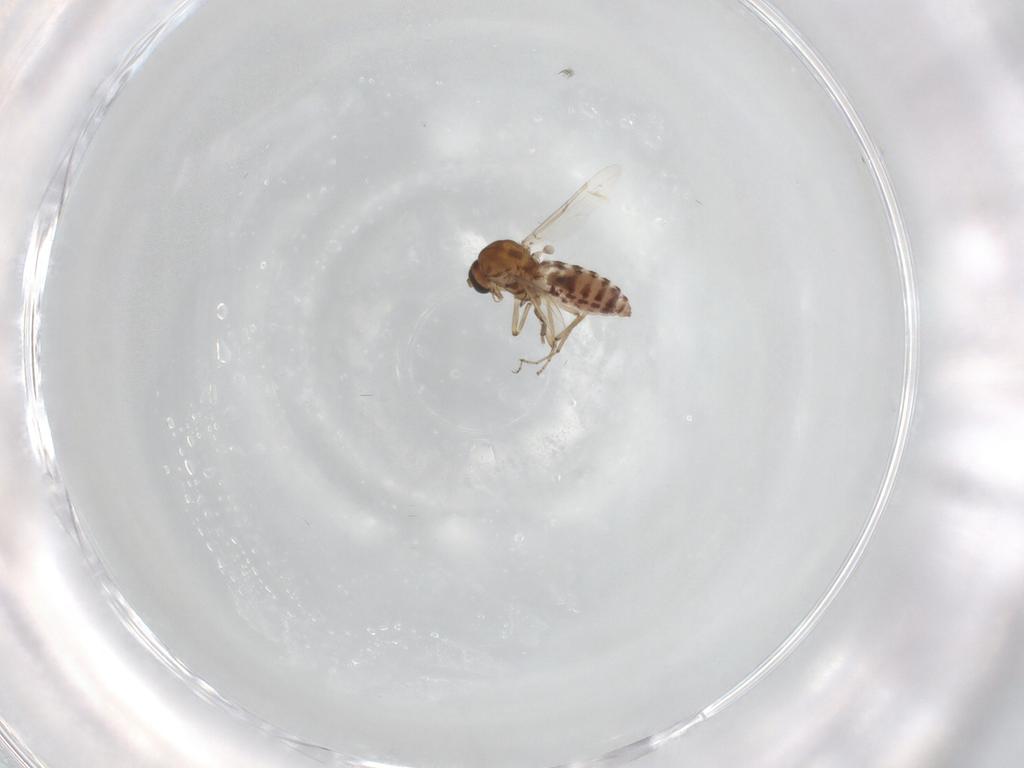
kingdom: Animalia
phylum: Arthropoda
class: Insecta
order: Diptera
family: Ceratopogonidae
